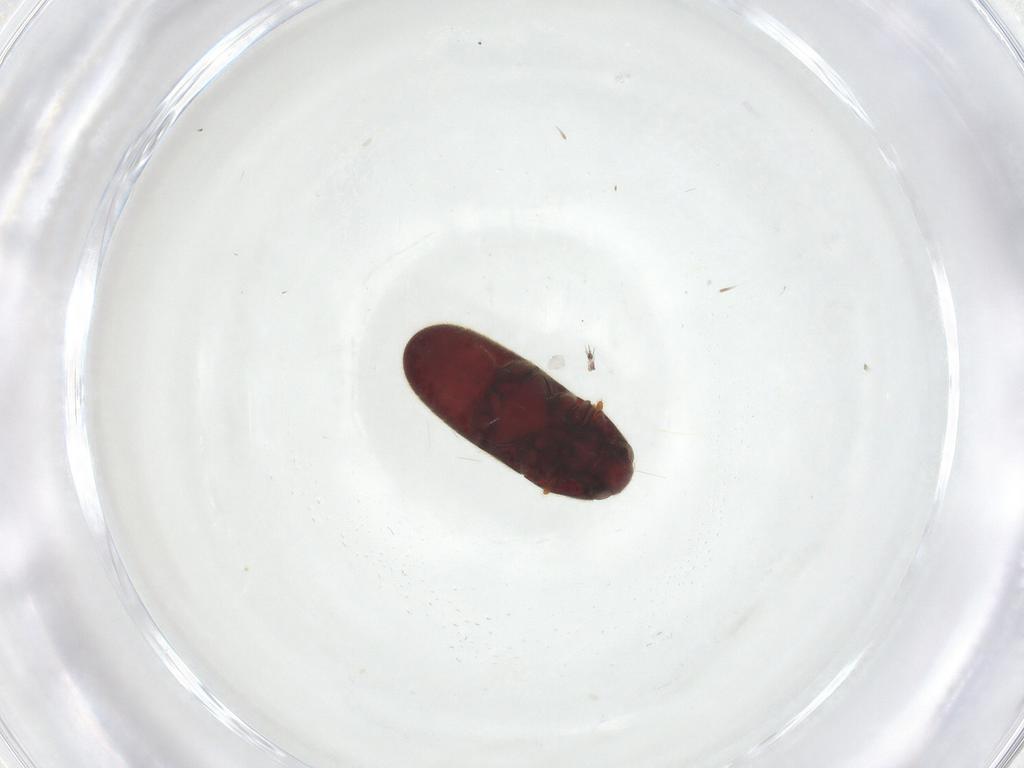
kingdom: Animalia
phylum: Arthropoda
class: Insecta
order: Coleoptera
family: Throscidae
